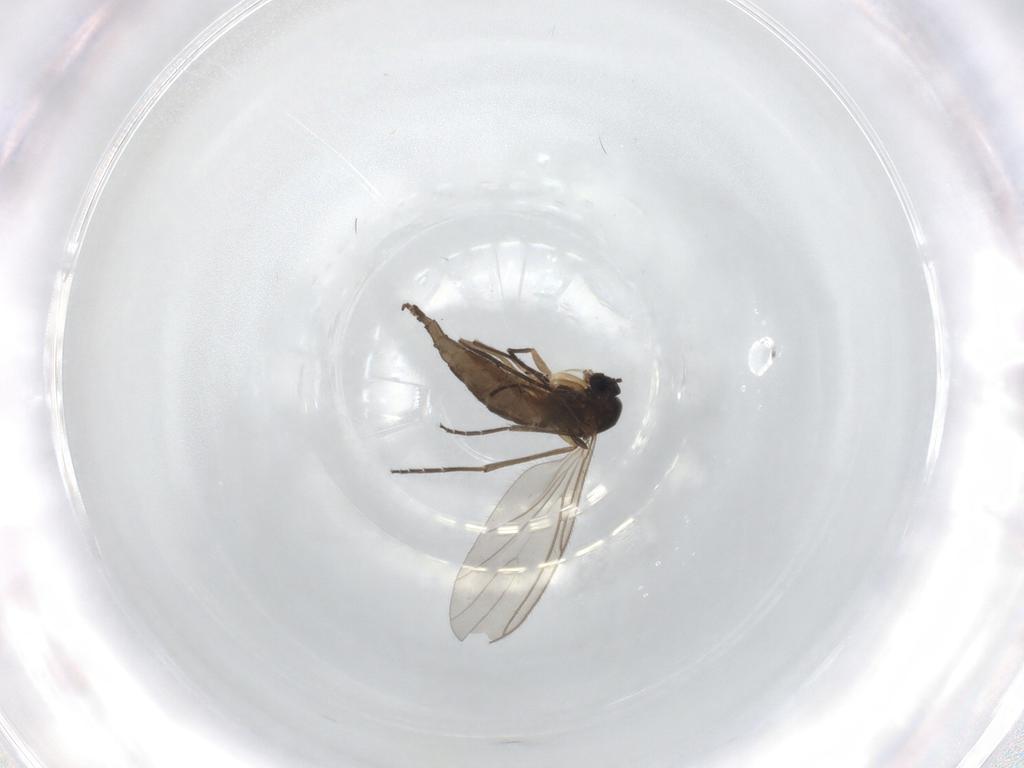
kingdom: Animalia
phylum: Arthropoda
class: Insecta
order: Diptera
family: Sciaridae
